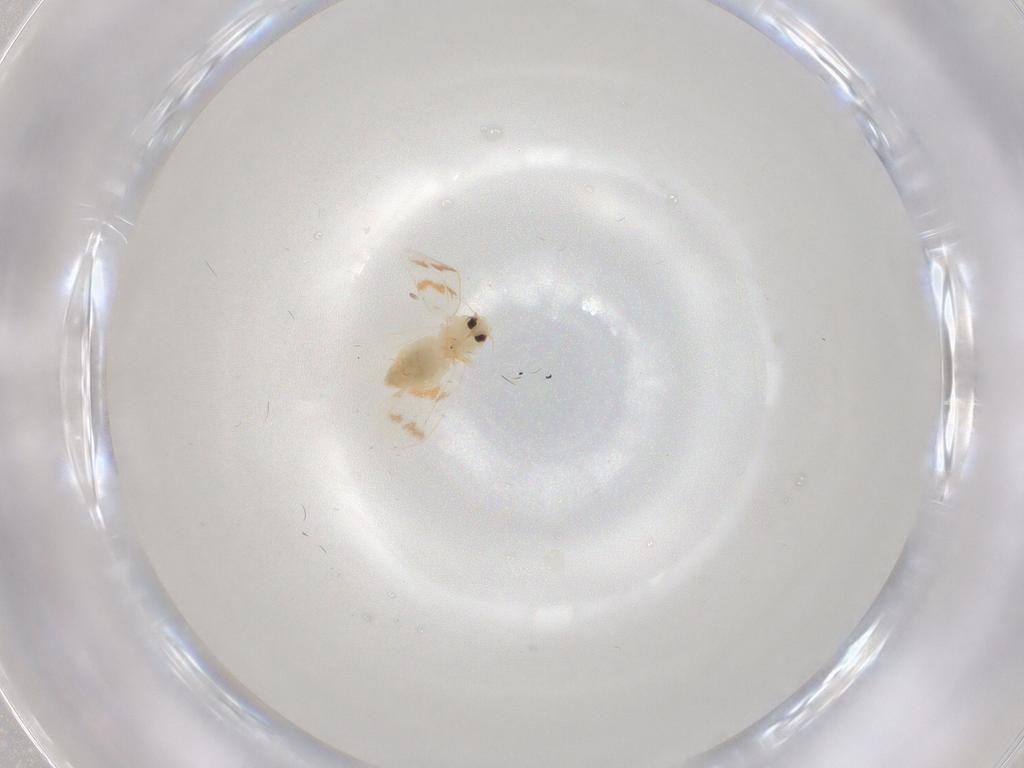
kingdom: Animalia
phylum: Arthropoda
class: Insecta
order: Hemiptera
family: Aleyrodidae
